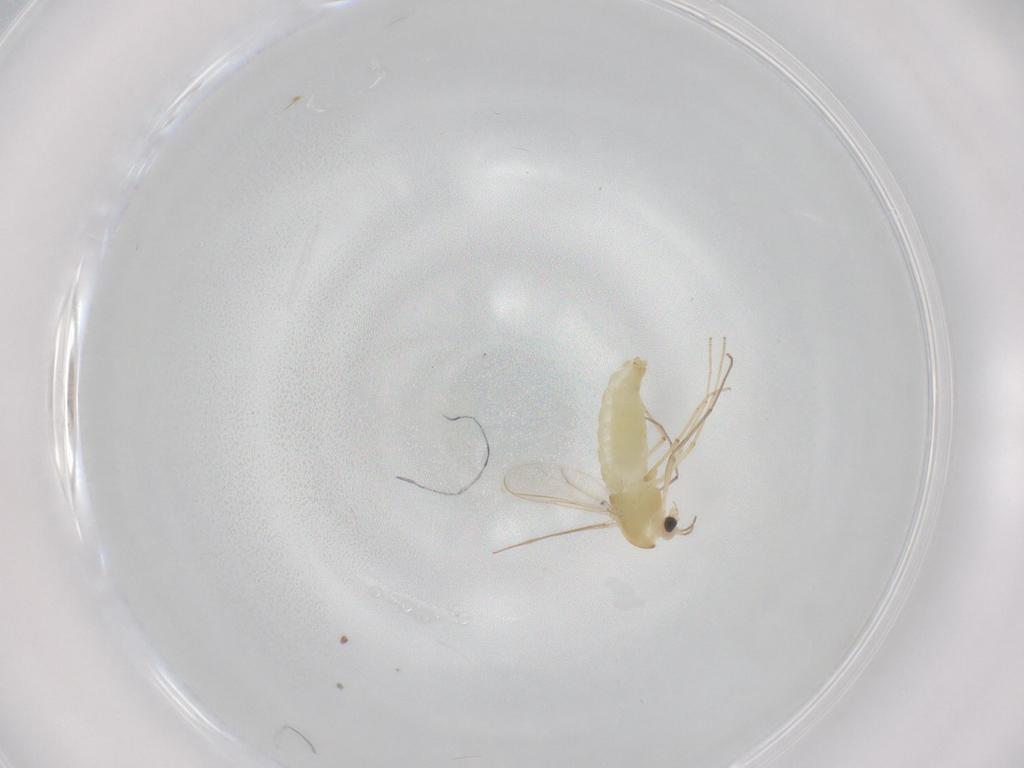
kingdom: Animalia
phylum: Arthropoda
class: Insecta
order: Diptera
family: Chironomidae
